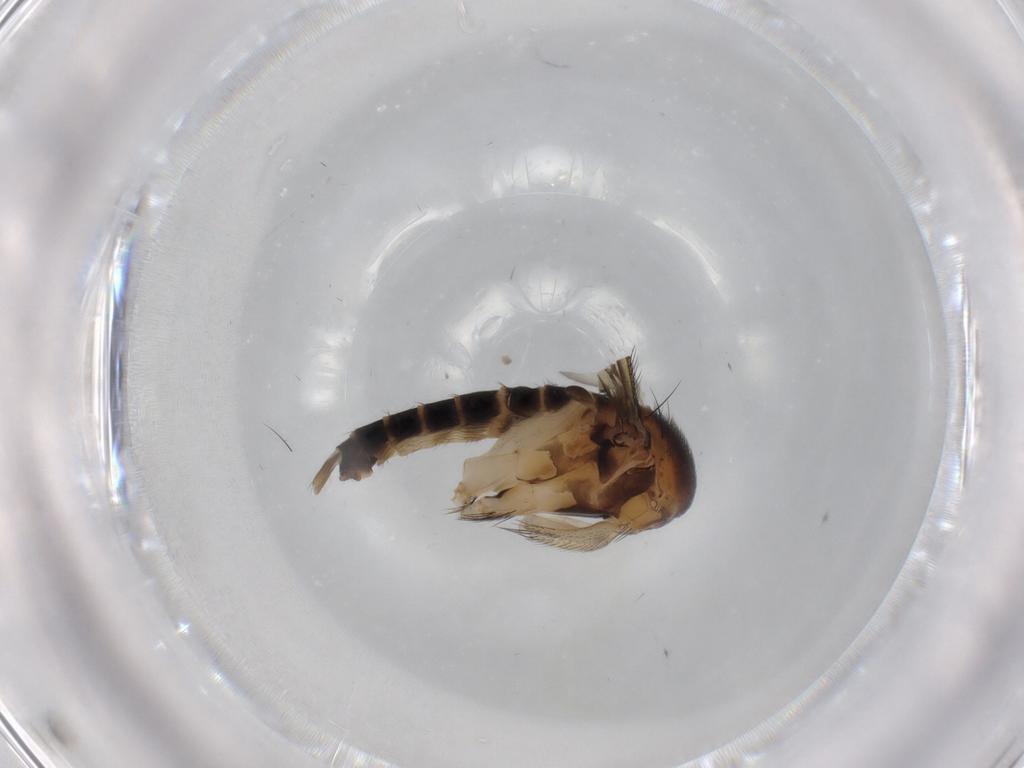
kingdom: Animalia
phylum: Arthropoda
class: Insecta
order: Diptera
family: Phoridae
